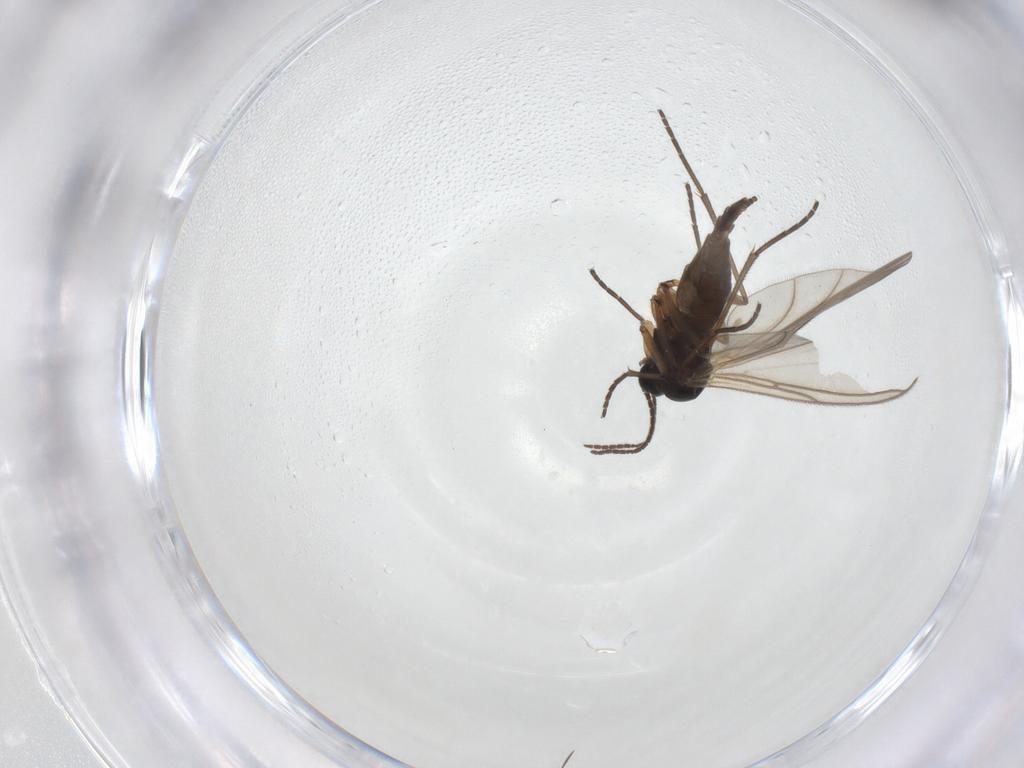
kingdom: Animalia
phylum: Arthropoda
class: Insecta
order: Diptera
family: Sciaridae
